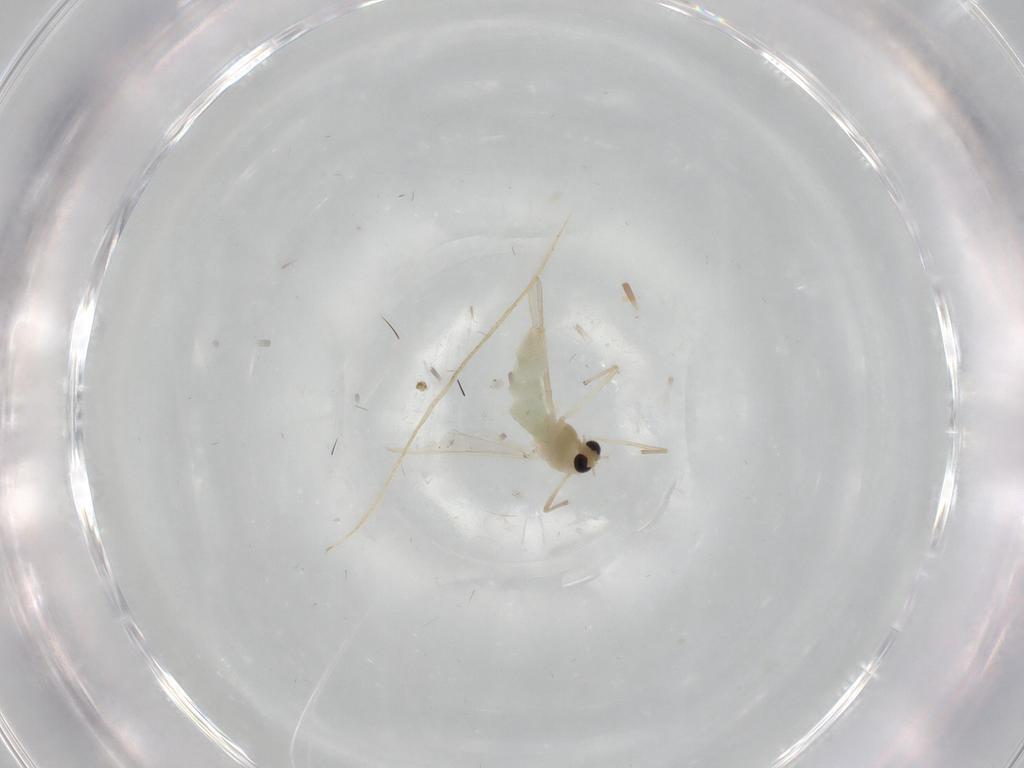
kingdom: Animalia
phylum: Arthropoda
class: Insecta
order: Diptera
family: Chironomidae
